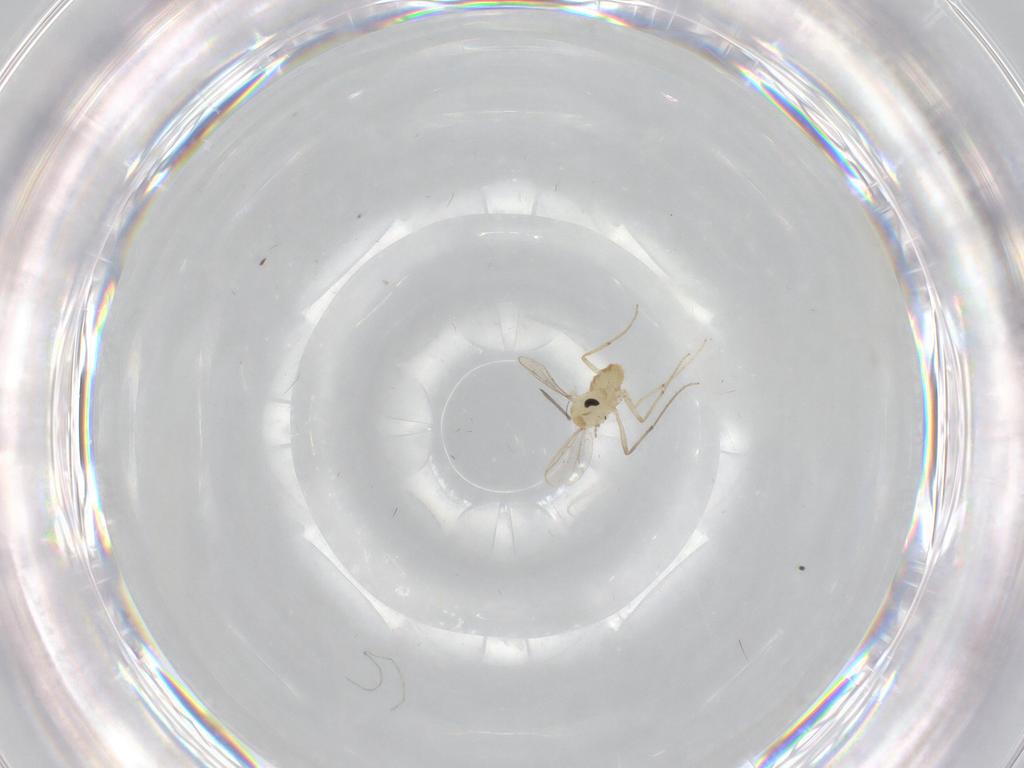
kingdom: Animalia
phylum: Arthropoda
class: Insecta
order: Diptera
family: Chironomidae
